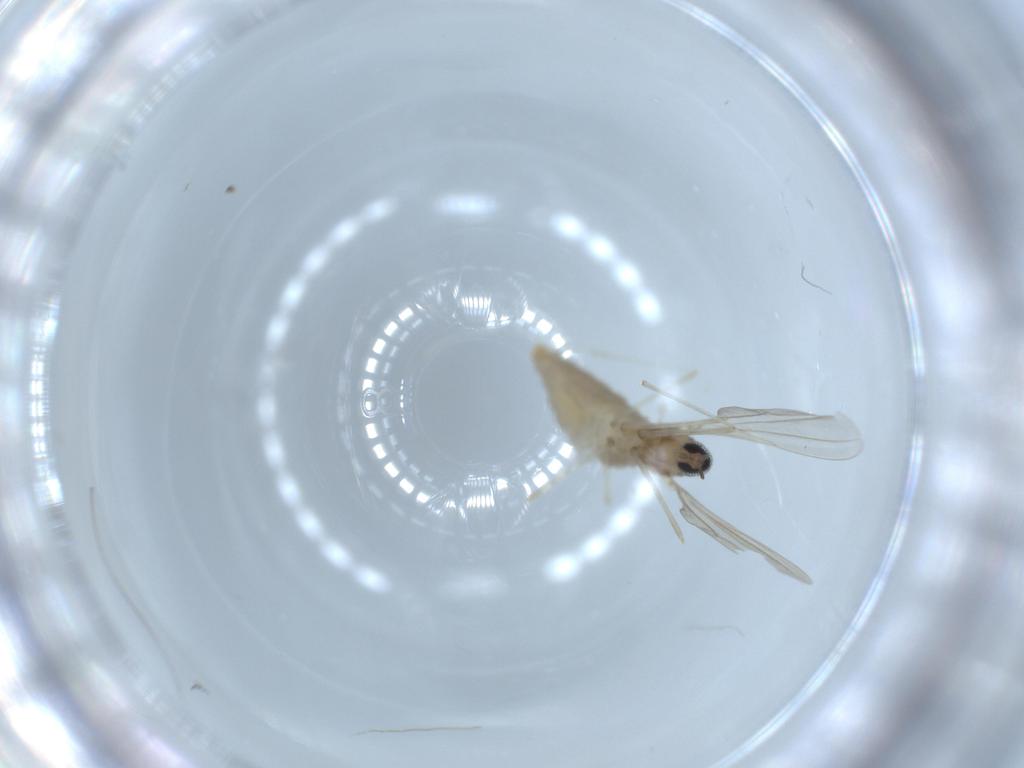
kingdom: Animalia
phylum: Arthropoda
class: Insecta
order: Diptera
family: Cecidomyiidae
